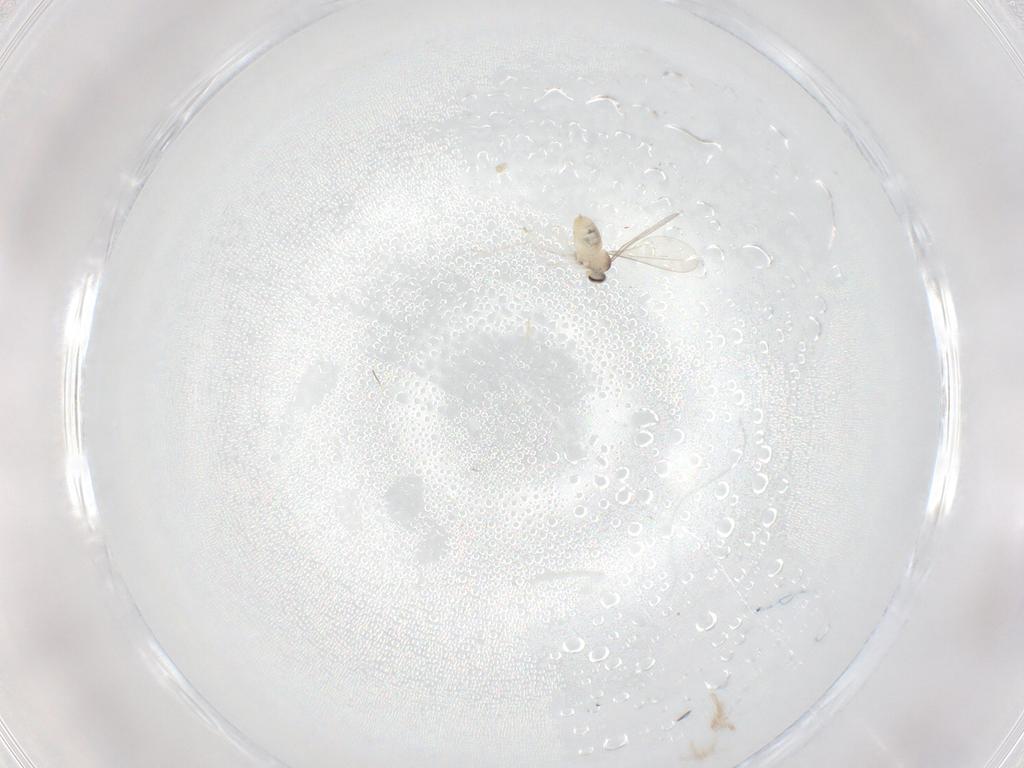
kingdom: Animalia
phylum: Arthropoda
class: Insecta
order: Diptera
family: Cecidomyiidae
